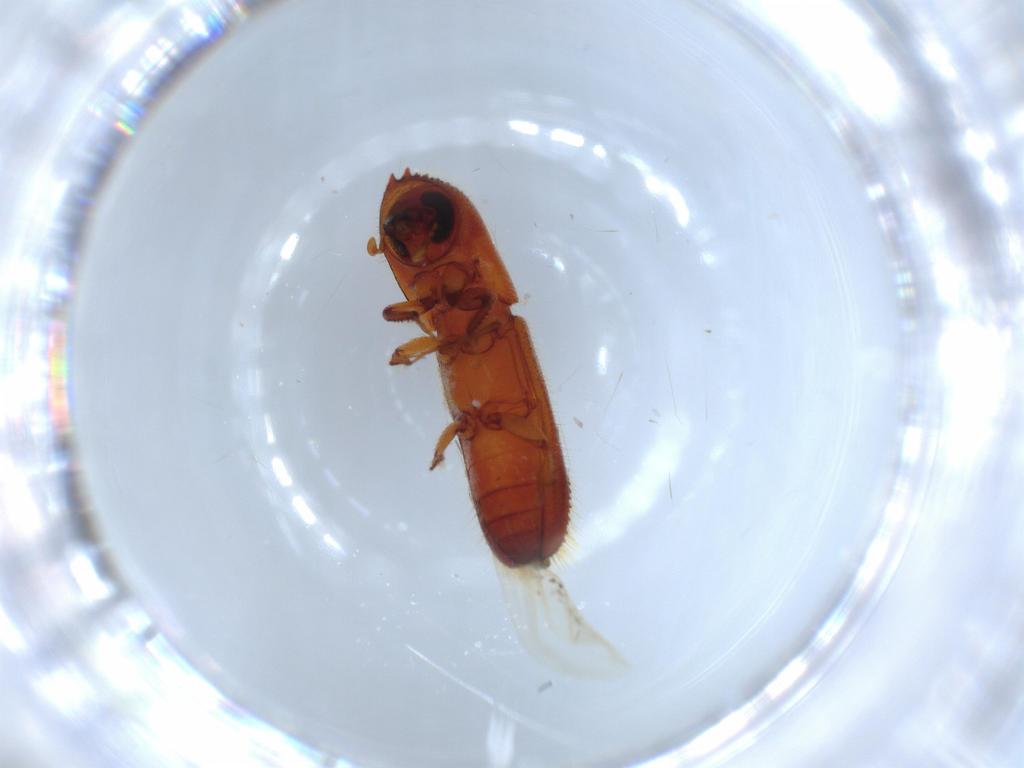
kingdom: Animalia
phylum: Arthropoda
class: Insecta
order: Coleoptera
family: Curculionidae
